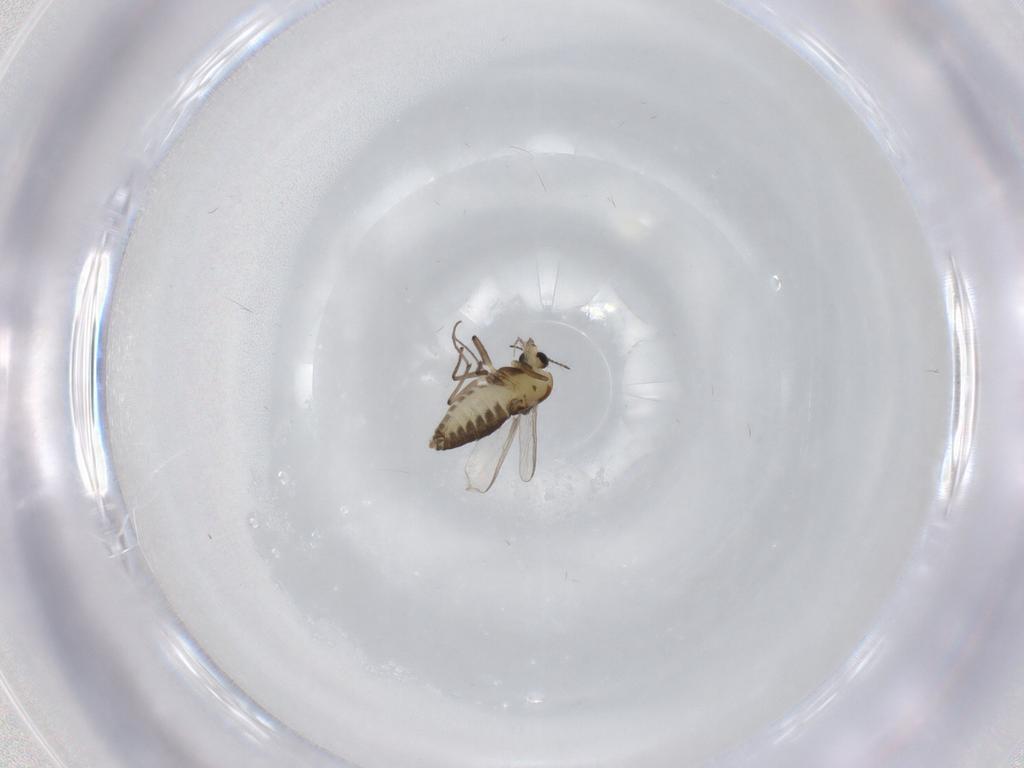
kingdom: Animalia
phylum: Arthropoda
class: Insecta
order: Diptera
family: Chironomidae
